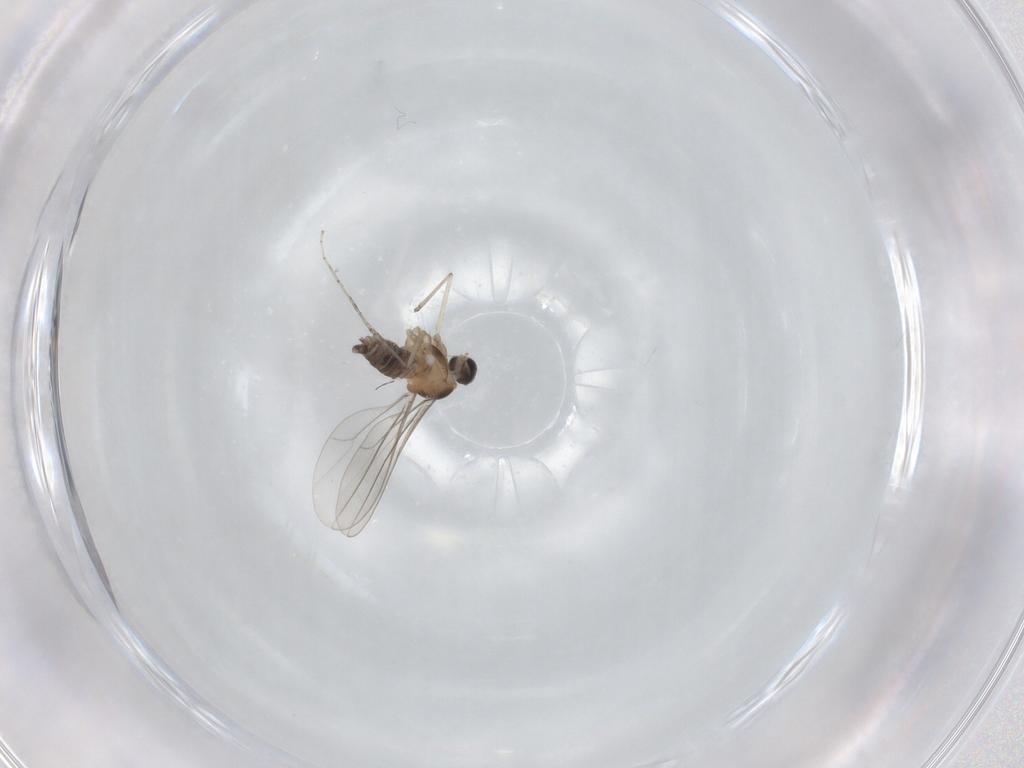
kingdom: Animalia
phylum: Arthropoda
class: Insecta
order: Diptera
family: Cecidomyiidae
